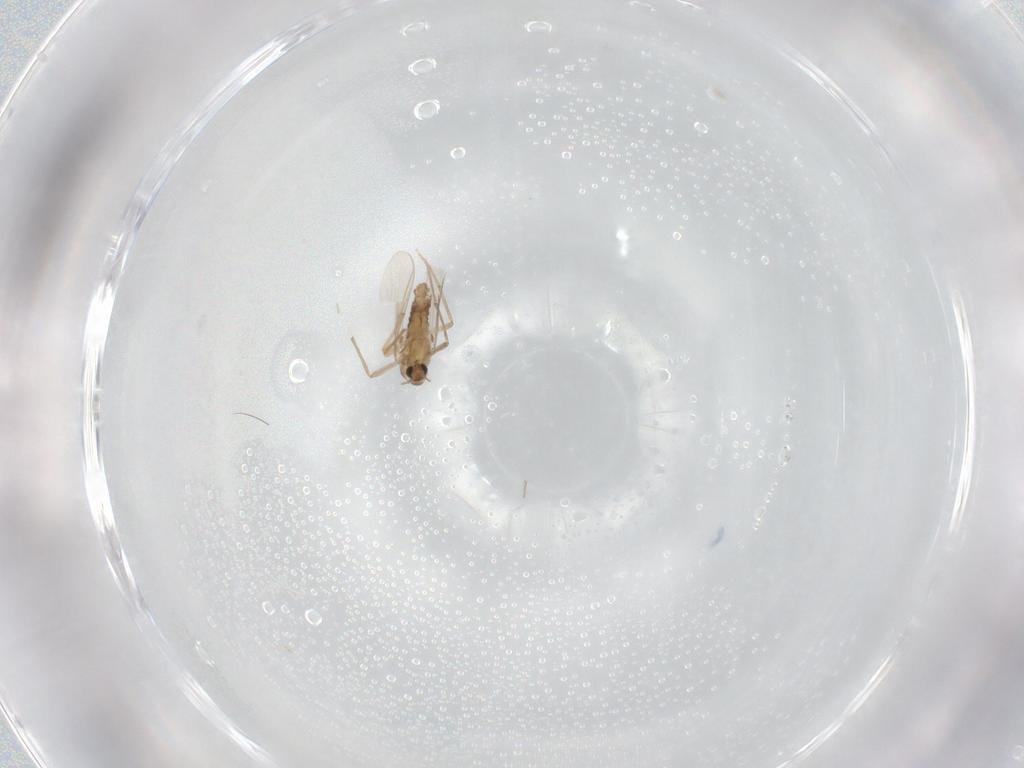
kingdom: Animalia
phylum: Arthropoda
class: Insecta
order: Diptera
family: Chironomidae
